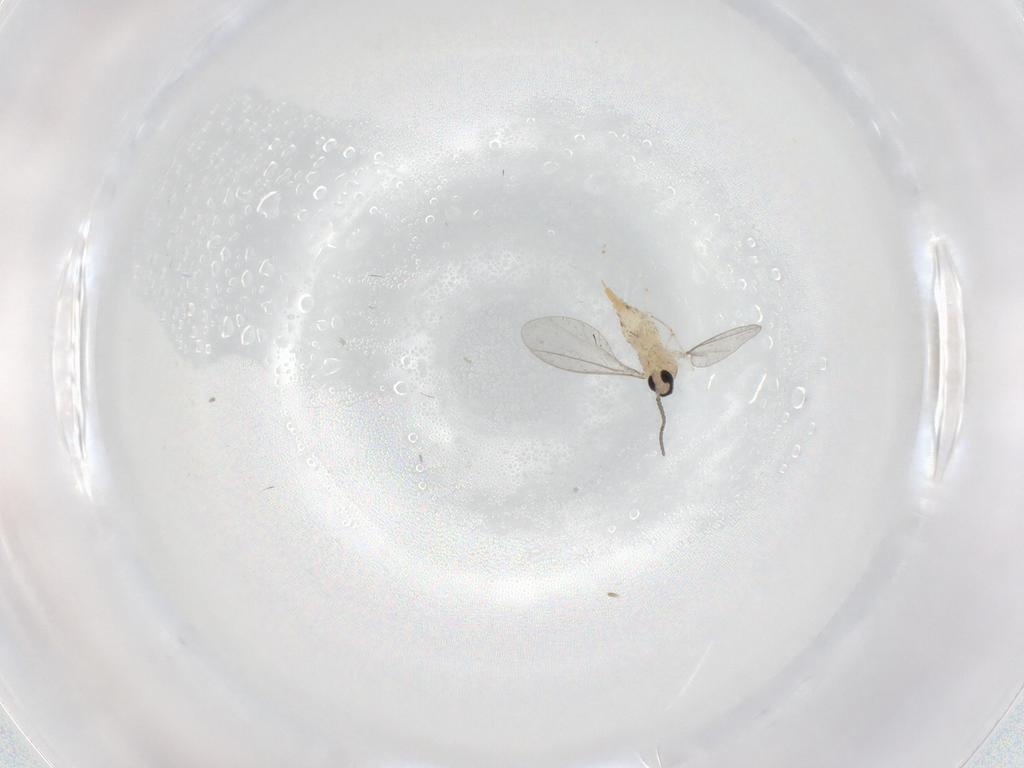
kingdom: Animalia
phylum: Arthropoda
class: Insecta
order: Diptera
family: Cecidomyiidae
